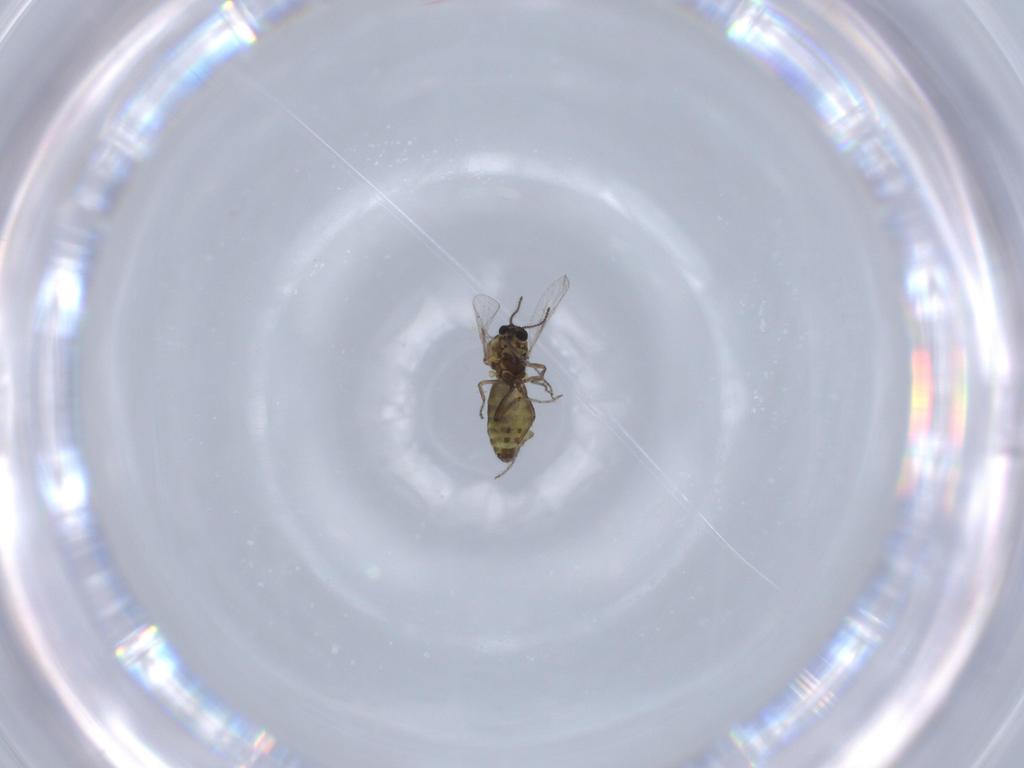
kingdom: Animalia
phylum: Arthropoda
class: Insecta
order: Diptera
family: Ceratopogonidae
